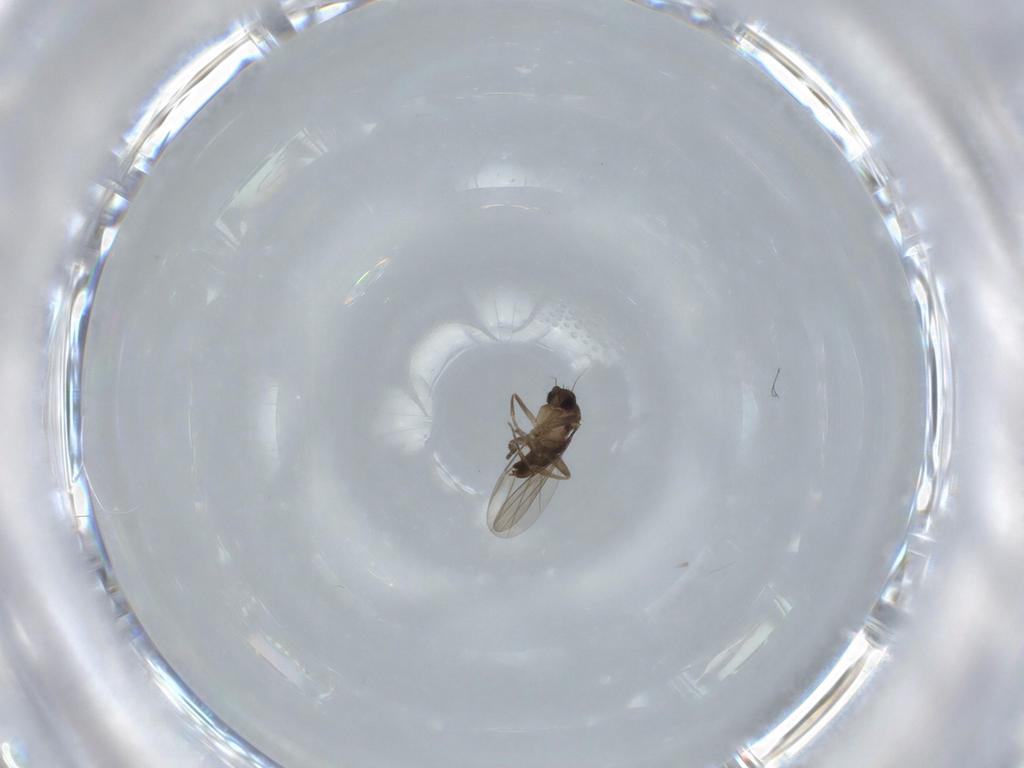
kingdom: Animalia
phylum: Arthropoda
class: Insecta
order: Diptera
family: Phoridae
